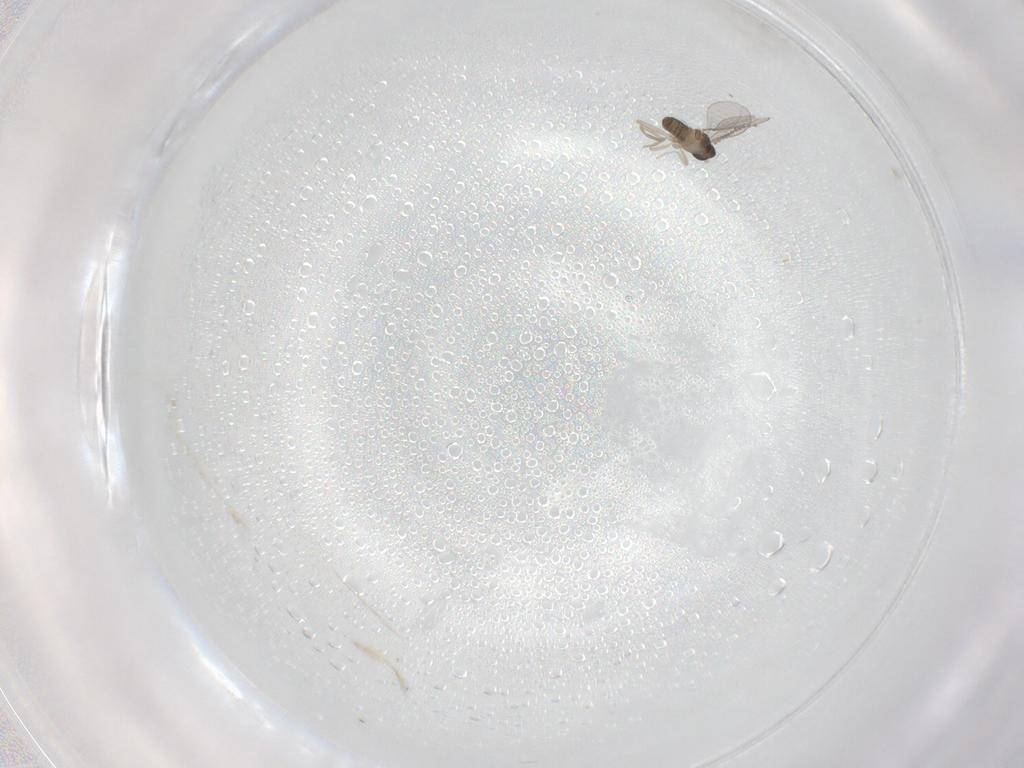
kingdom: Animalia
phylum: Arthropoda
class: Insecta
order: Diptera
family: Cecidomyiidae
